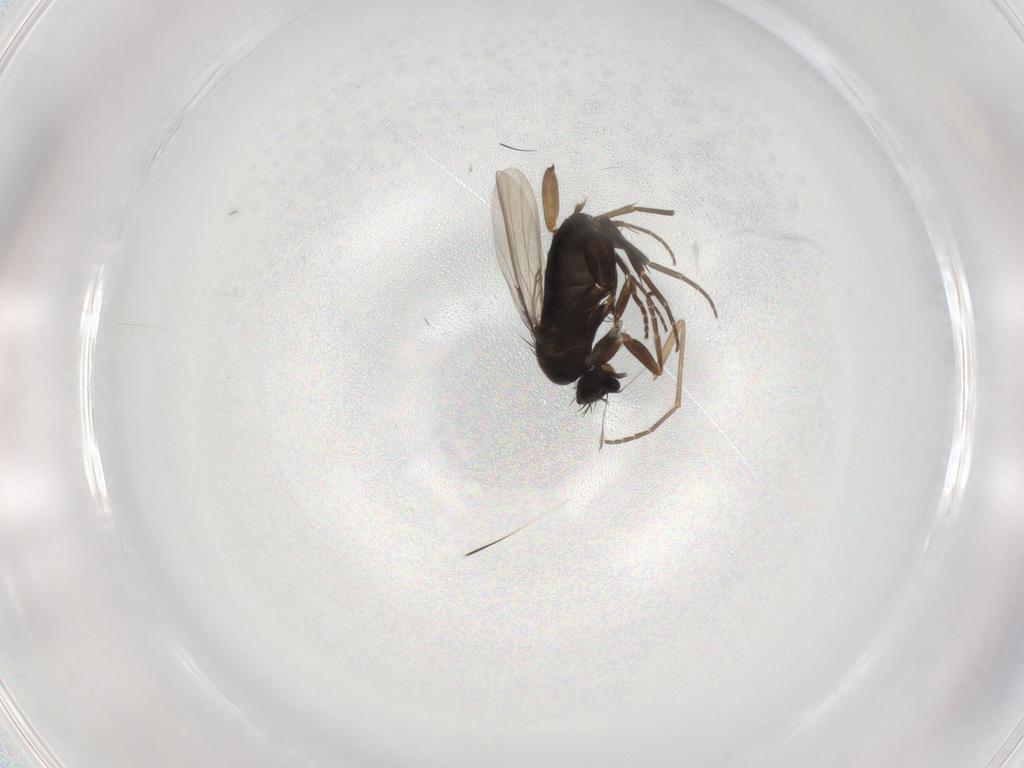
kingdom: Animalia
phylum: Arthropoda
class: Insecta
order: Diptera
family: Phoridae
